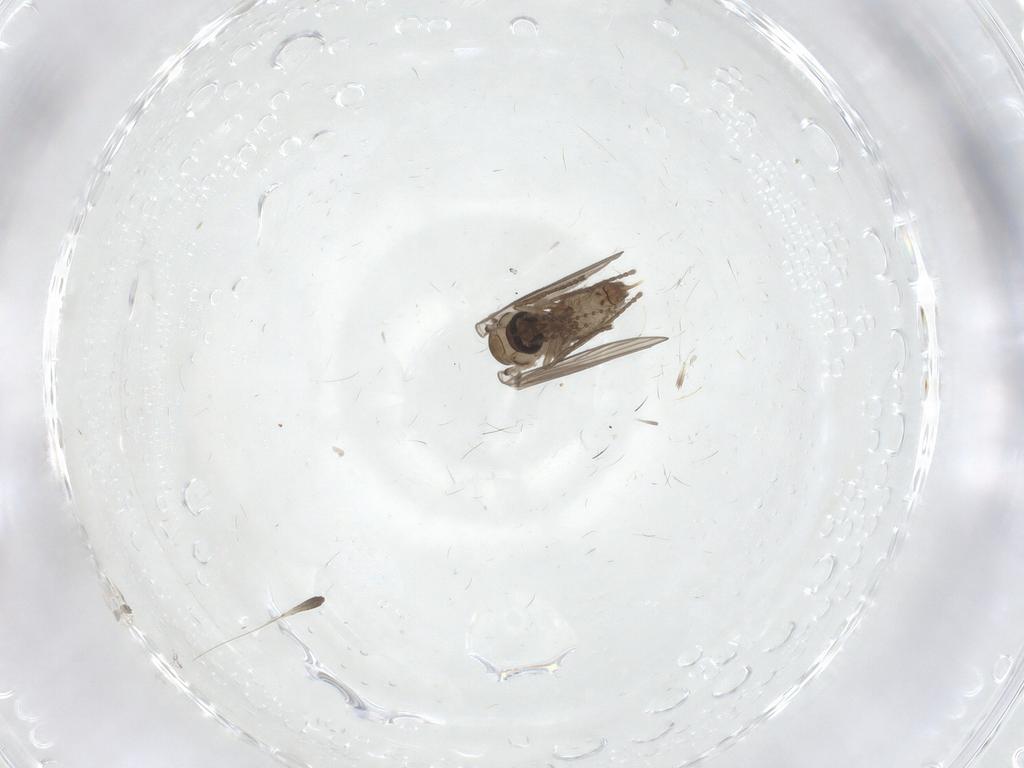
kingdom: Animalia
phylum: Arthropoda
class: Insecta
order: Diptera
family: Psychodidae
